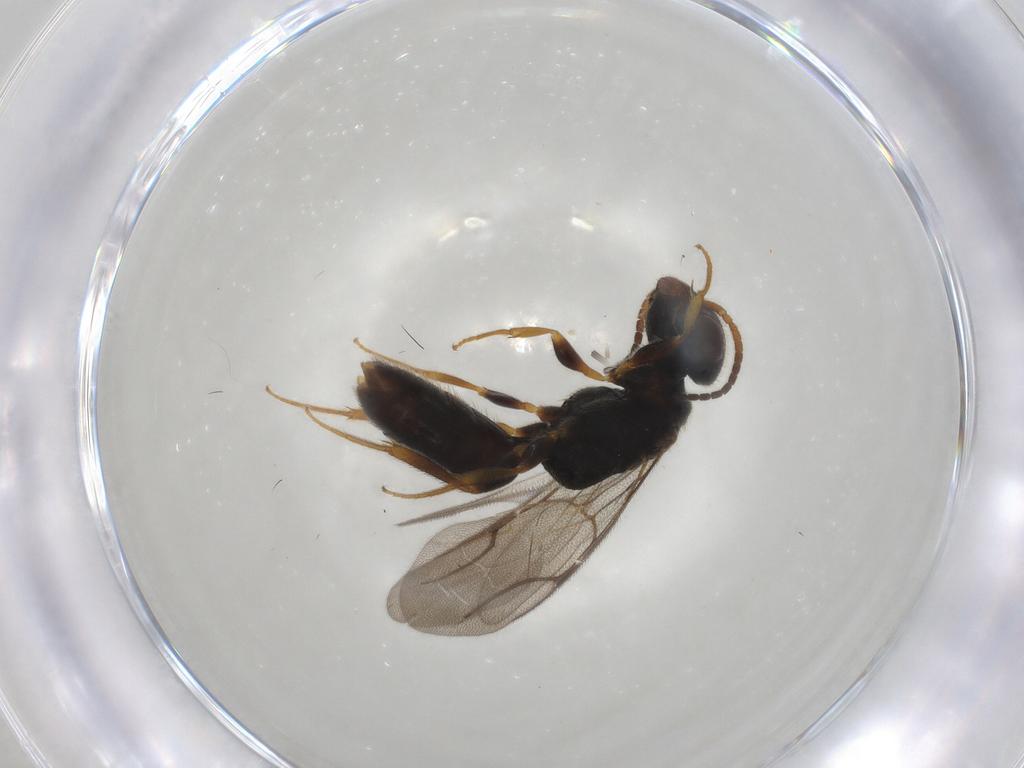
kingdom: Animalia
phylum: Arthropoda
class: Insecta
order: Hymenoptera
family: Bethylidae
